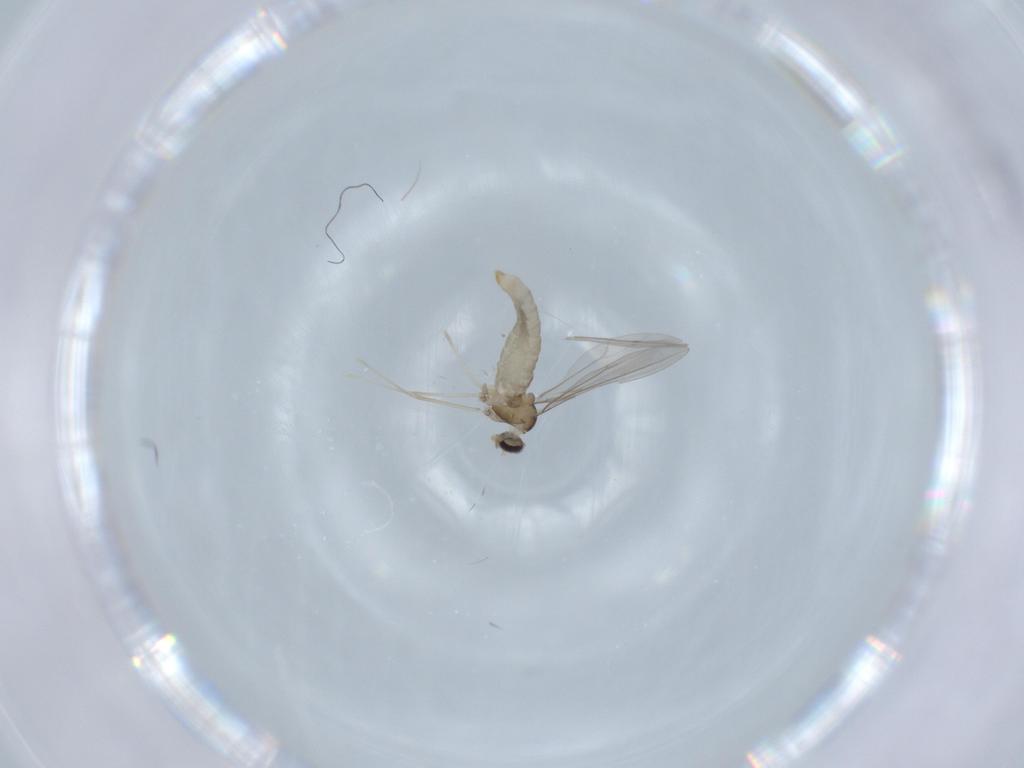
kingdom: Animalia
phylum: Arthropoda
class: Insecta
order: Diptera
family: Cecidomyiidae
